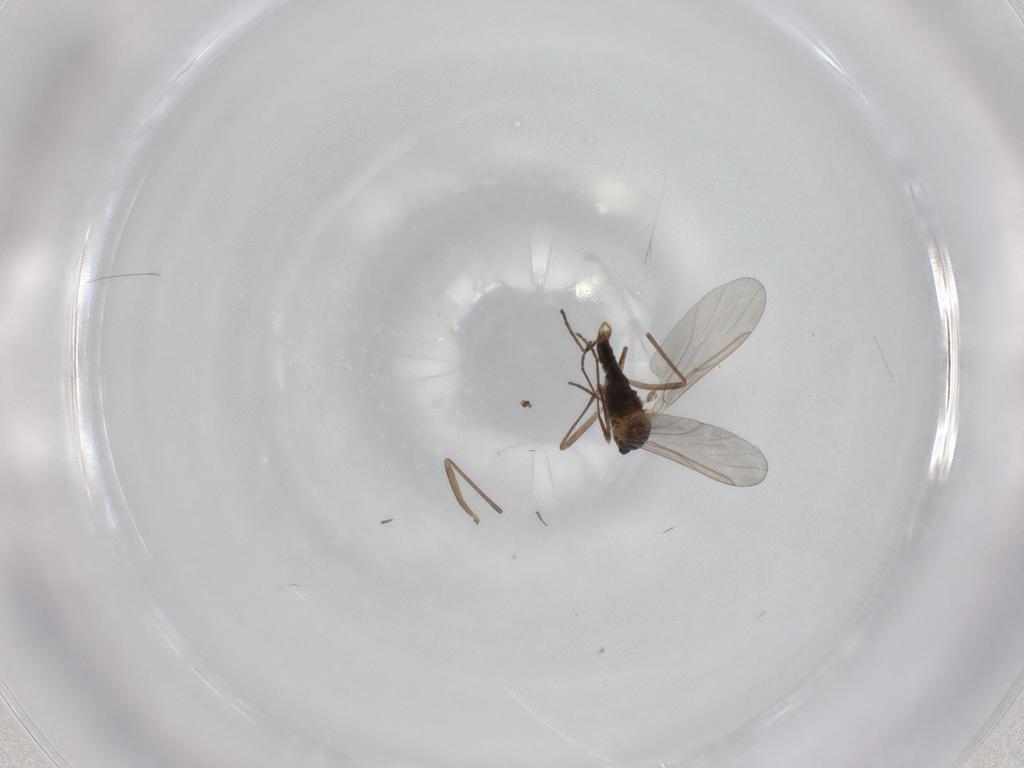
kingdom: Animalia
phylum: Arthropoda
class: Insecta
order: Diptera
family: Cecidomyiidae
